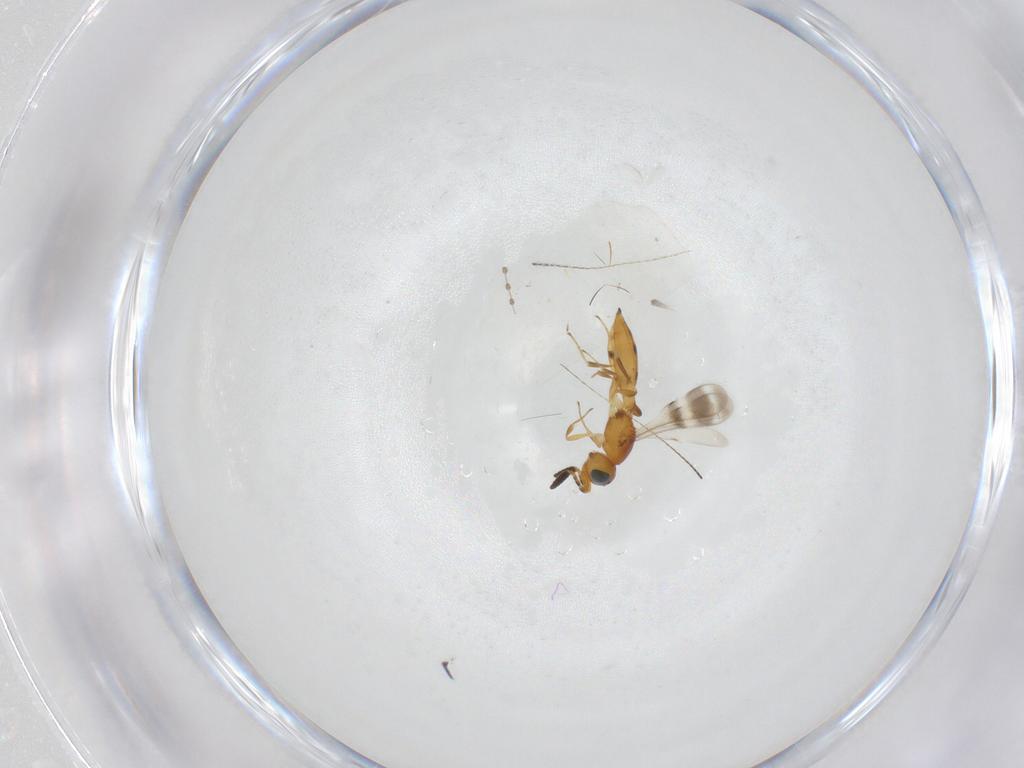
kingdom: Animalia
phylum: Arthropoda
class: Insecta
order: Hymenoptera
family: Scelionidae
